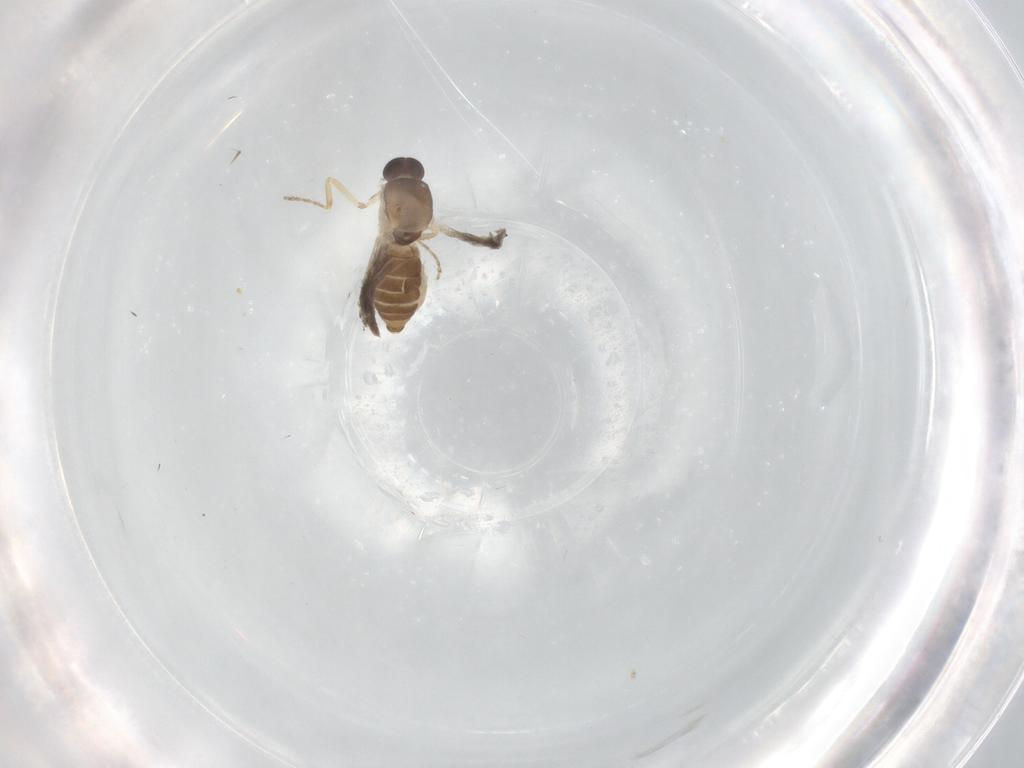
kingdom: Animalia
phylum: Arthropoda
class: Insecta
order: Diptera
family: Ceratopogonidae
